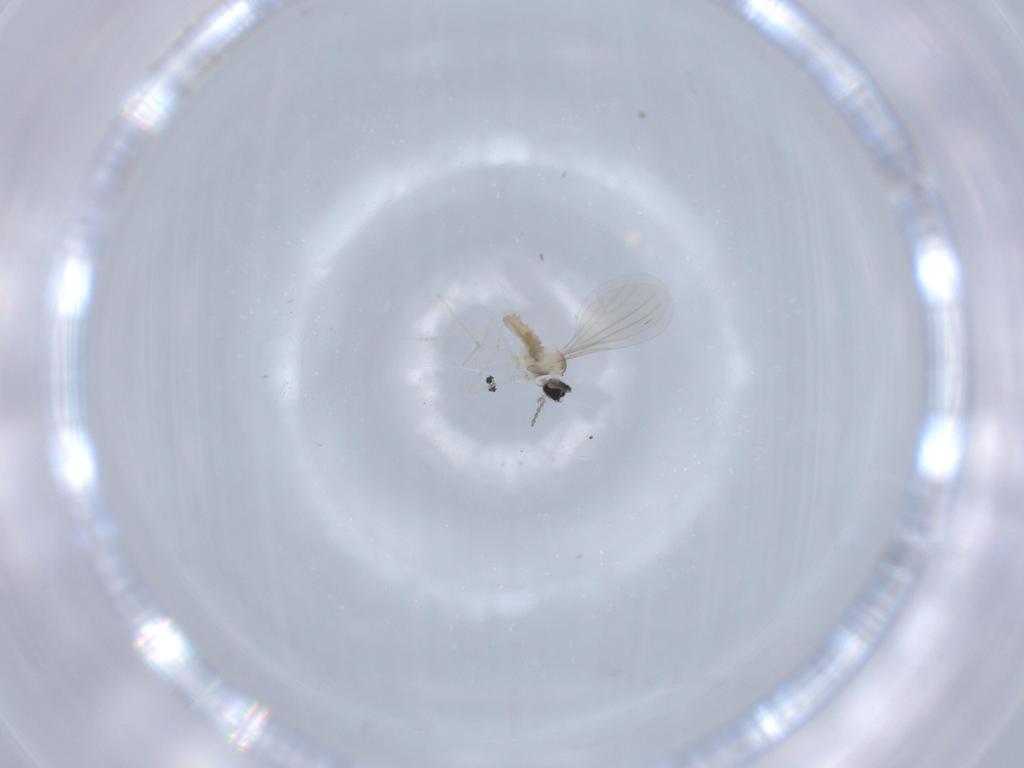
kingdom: Animalia
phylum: Arthropoda
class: Insecta
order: Diptera
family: Cecidomyiidae
